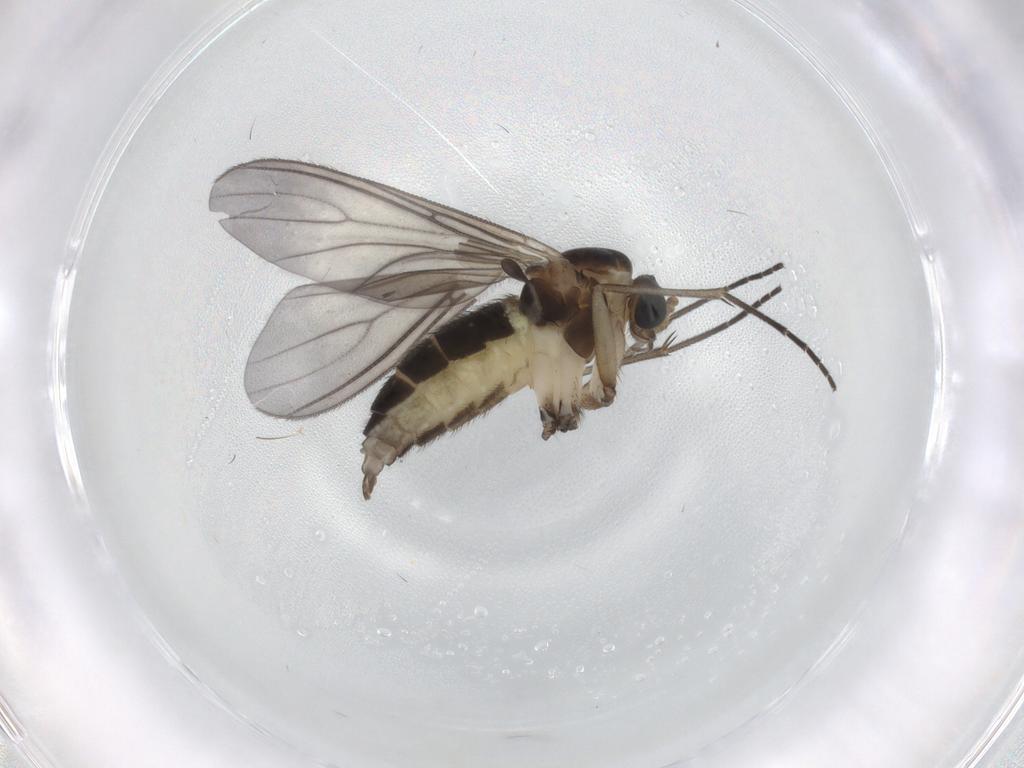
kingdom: Animalia
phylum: Arthropoda
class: Insecta
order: Diptera
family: Sciaridae
